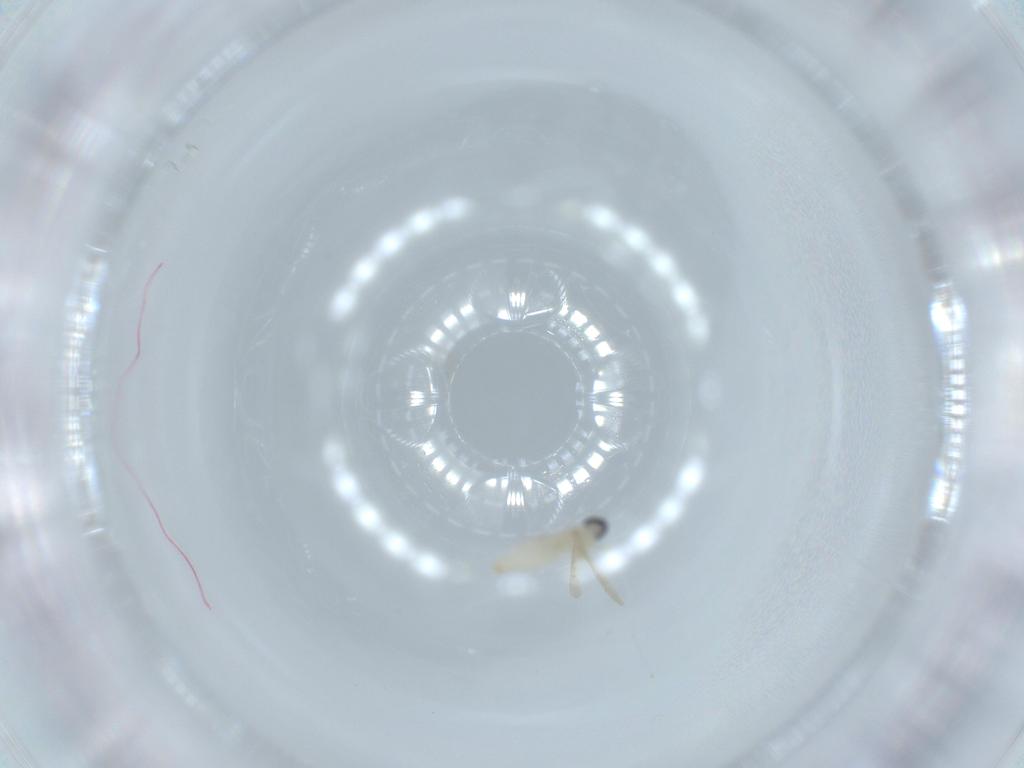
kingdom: Animalia
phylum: Arthropoda
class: Insecta
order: Diptera
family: Cecidomyiidae
